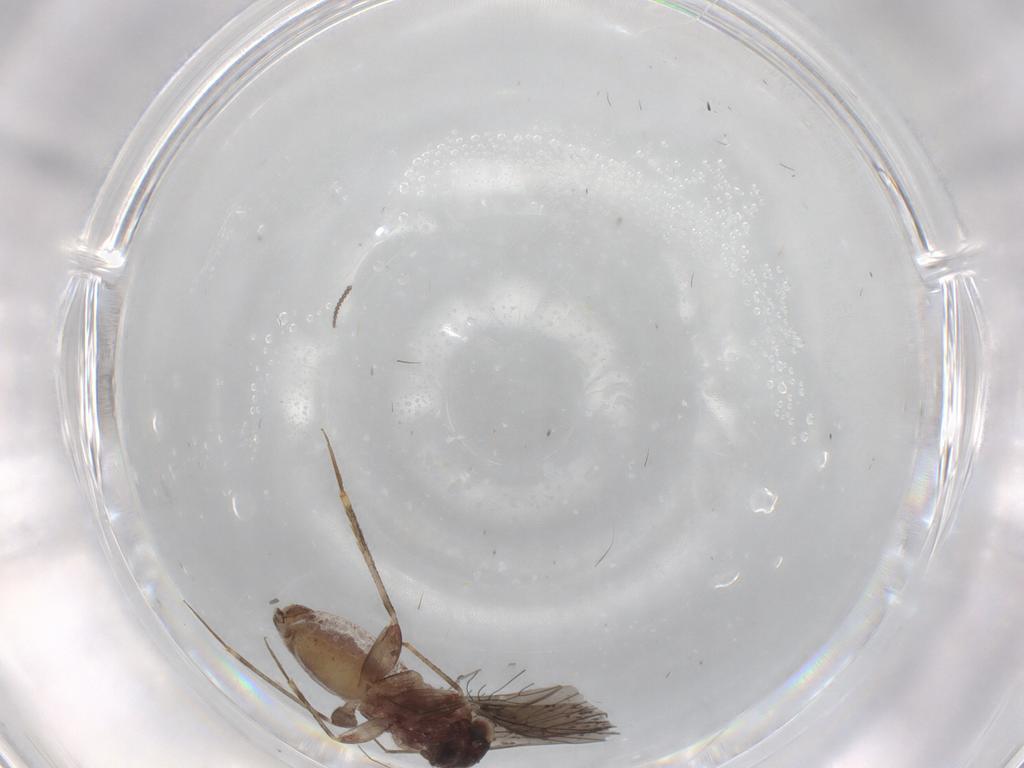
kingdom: Animalia
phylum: Arthropoda
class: Insecta
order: Psocodea
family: Lepidopsocidae
